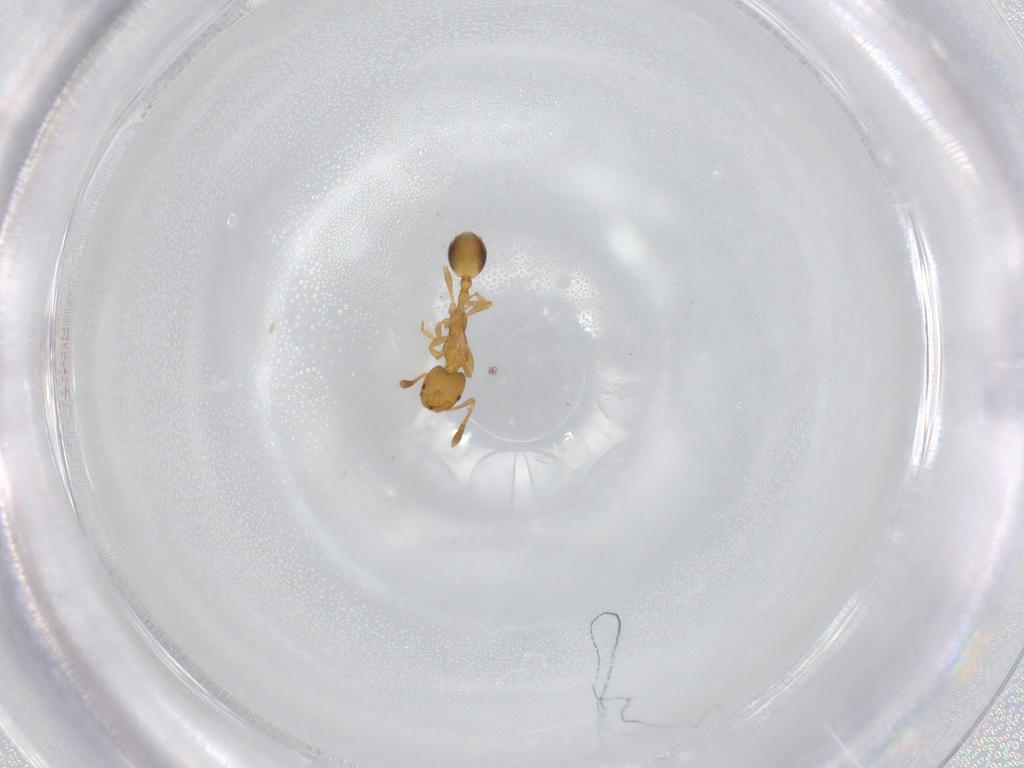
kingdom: Animalia
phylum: Arthropoda
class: Insecta
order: Hymenoptera
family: Formicidae
